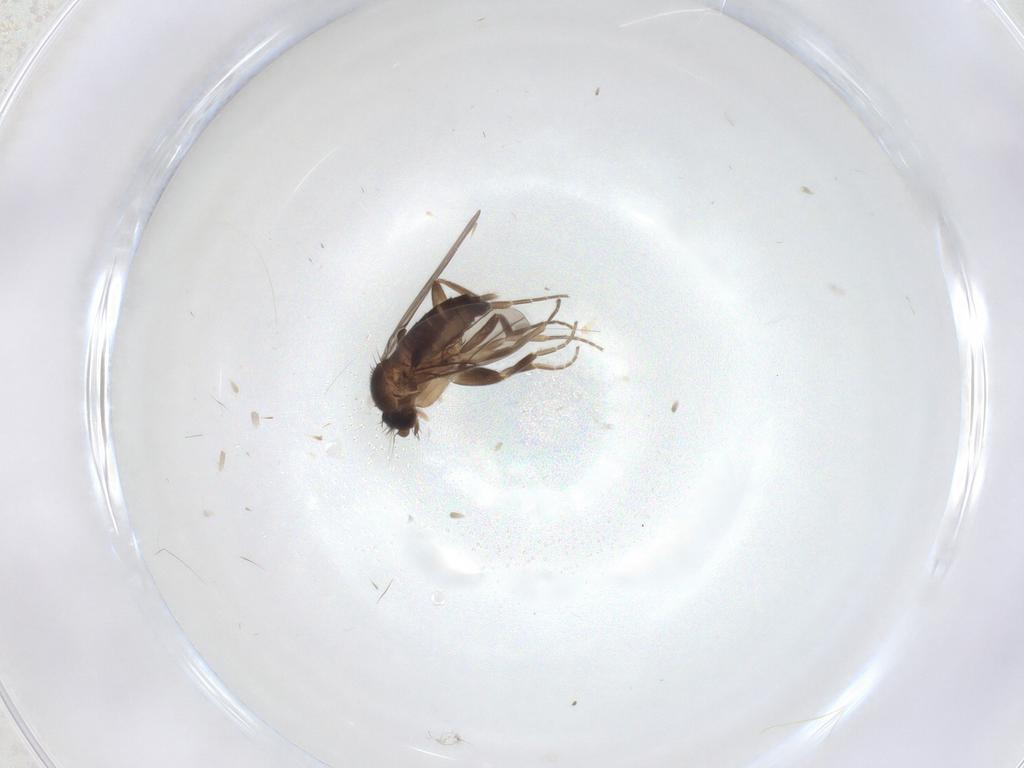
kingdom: Animalia
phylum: Arthropoda
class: Insecta
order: Diptera
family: Phoridae
